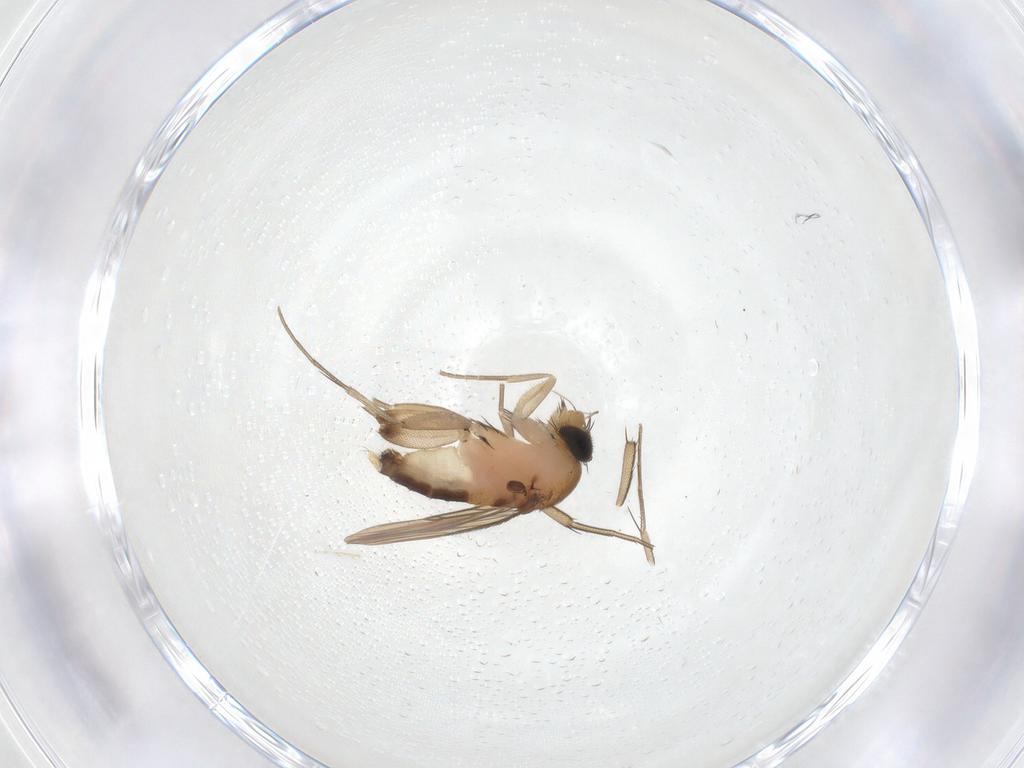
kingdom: Animalia
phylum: Arthropoda
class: Insecta
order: Diptera
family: Phoridae
